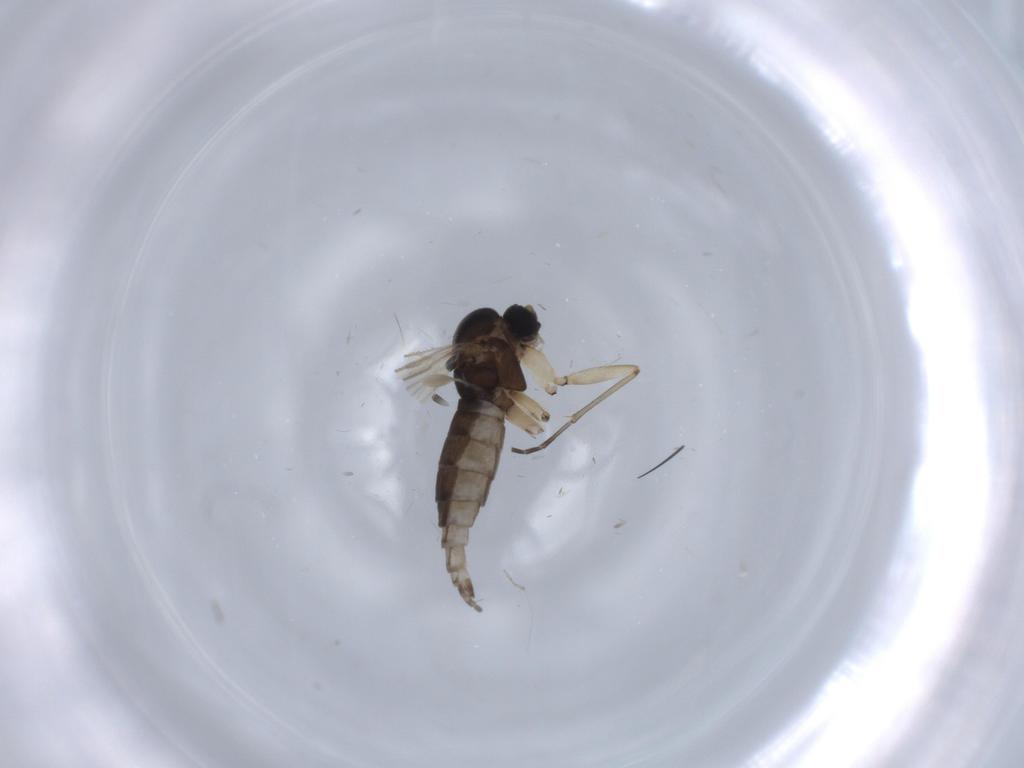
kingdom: Animalia
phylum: Arthropoda
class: Insecta
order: Diptera
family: Sciaridae
